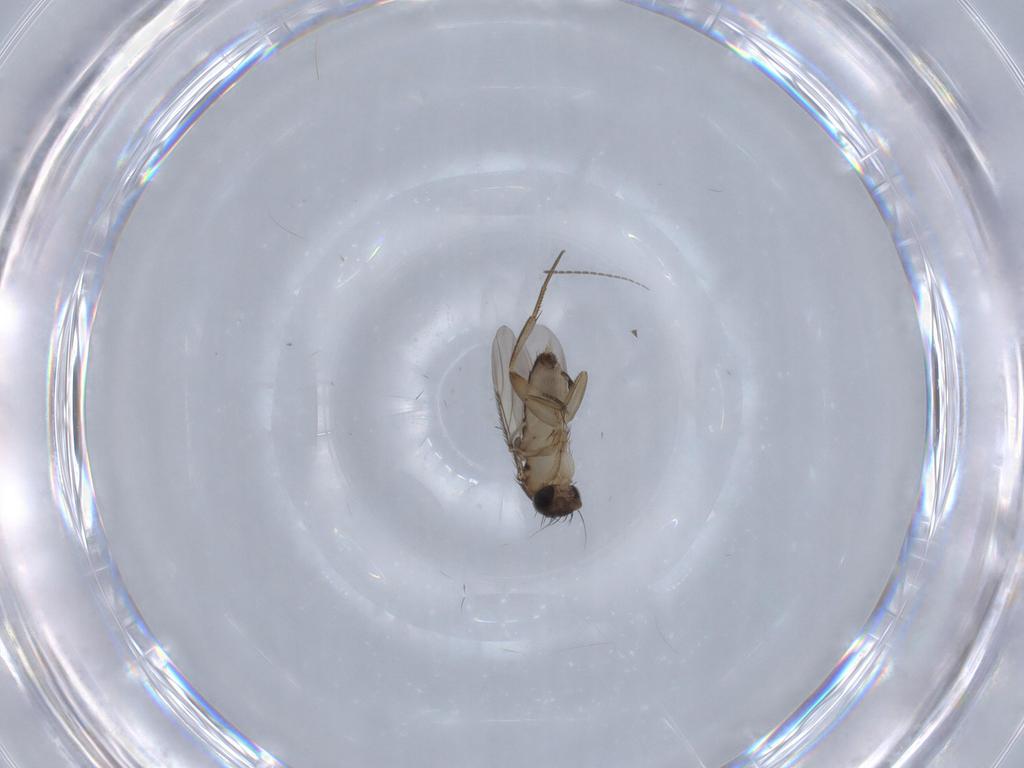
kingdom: Animalia
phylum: Arthropoda
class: Insecta
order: Diptera
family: Phoridae
